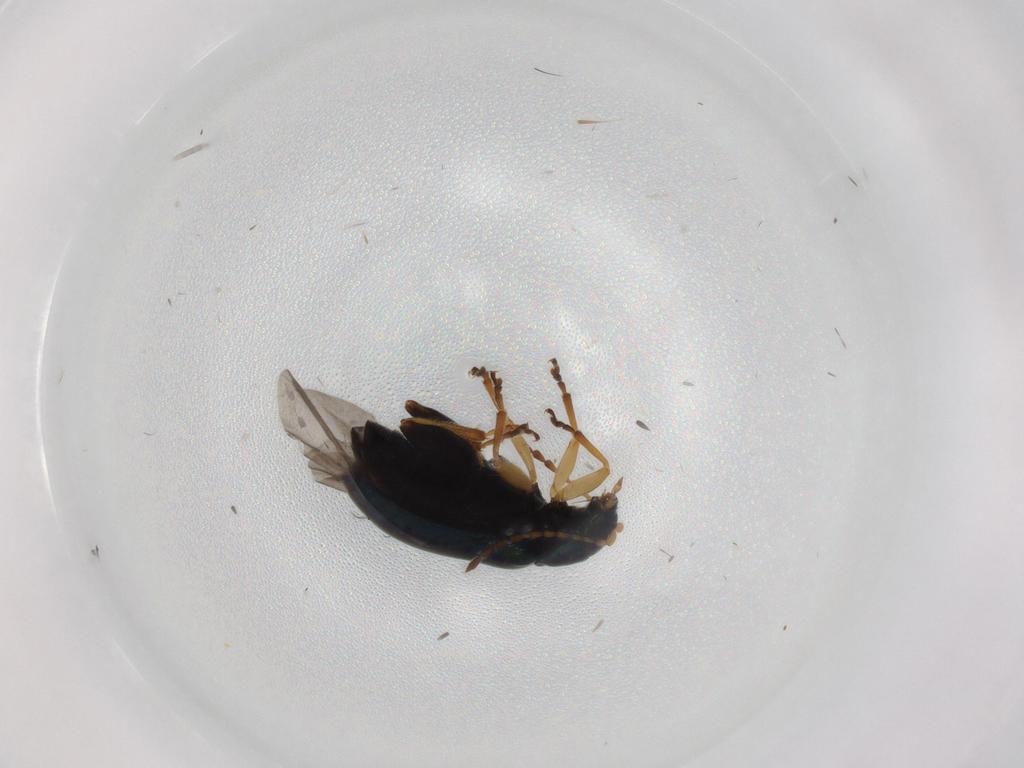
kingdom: Animalia
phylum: Arthropoda
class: Insecta
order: Coleoptera
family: Chrysomelidae
